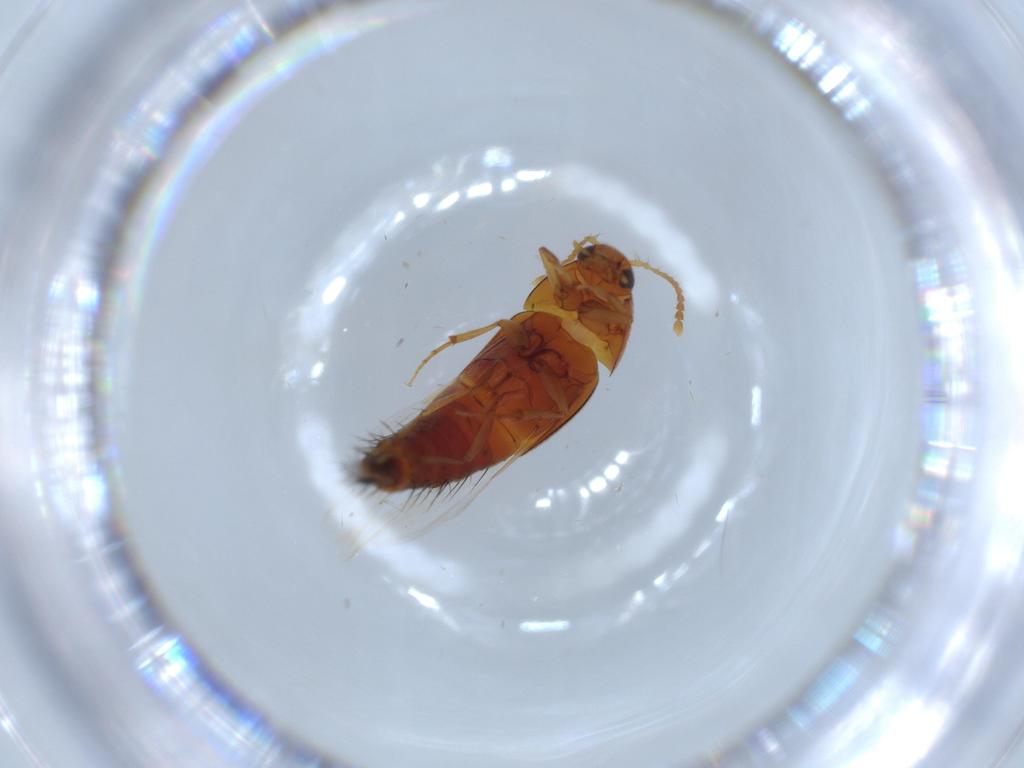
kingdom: Animalia
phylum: Arthropoda
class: Insecta
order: Coleoptera
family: Staphylinidae
